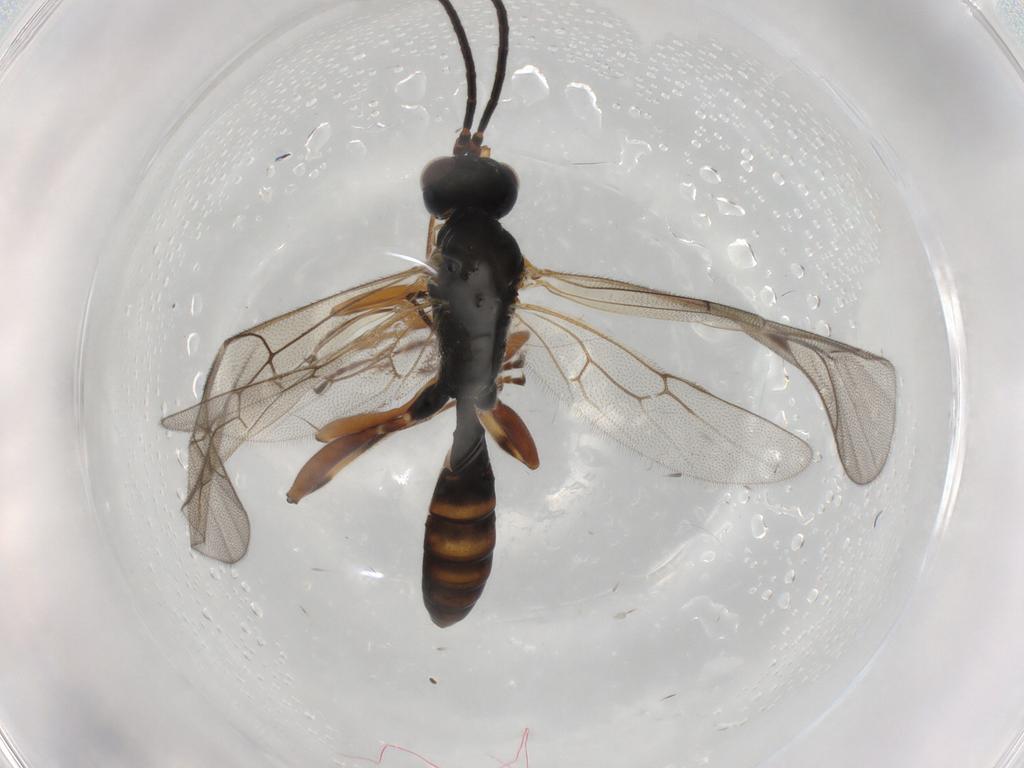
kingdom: Animalia
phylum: Arthropoda
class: Insecta
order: Hymenoptera
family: Ichneumonidae
